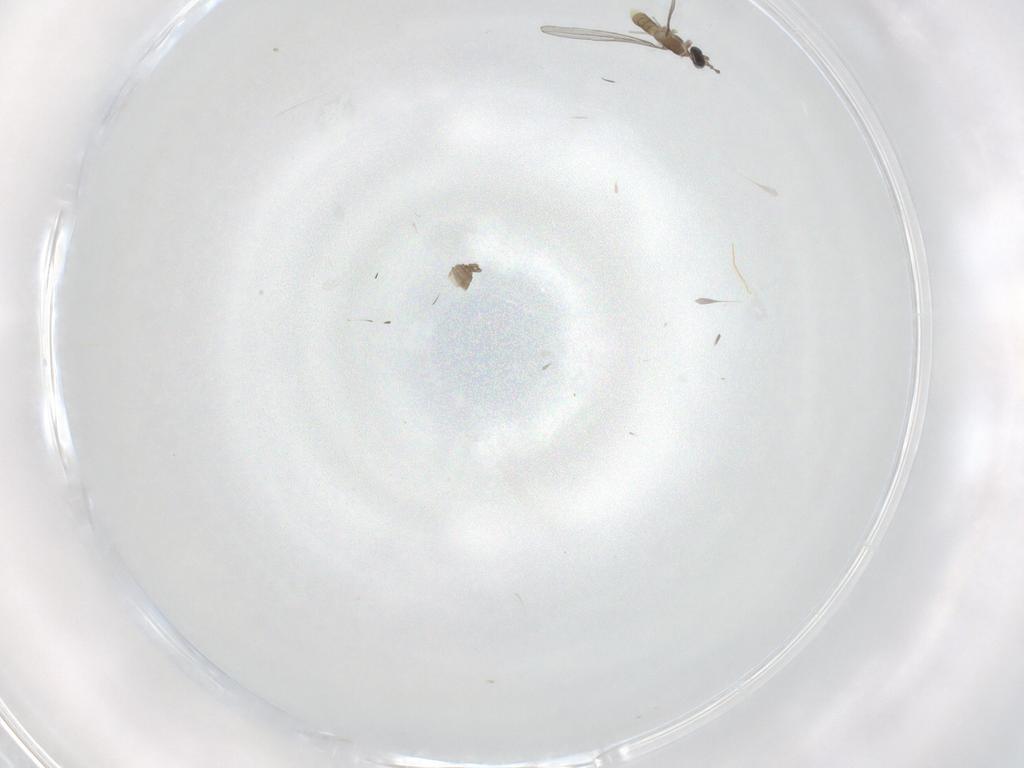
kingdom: Animalia
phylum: Arthropoda
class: Insecta
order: Diptera
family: Cecidomyiidae
